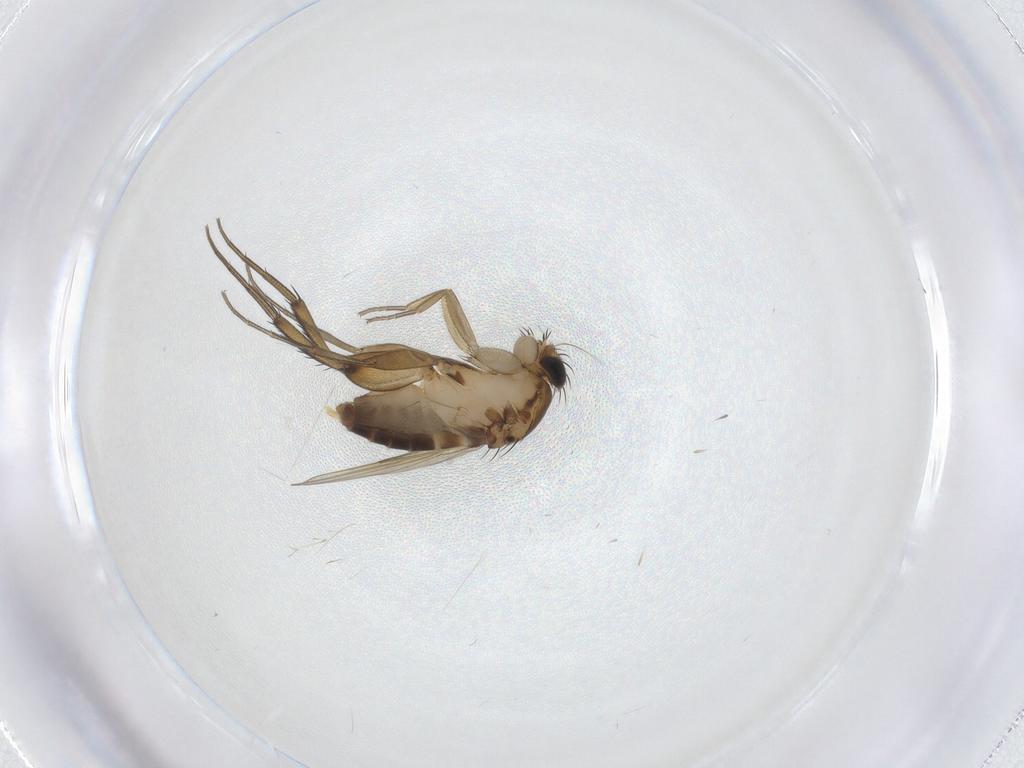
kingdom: Animalia
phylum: Arthropoda
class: Insecta
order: Diptera
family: Phoridae
